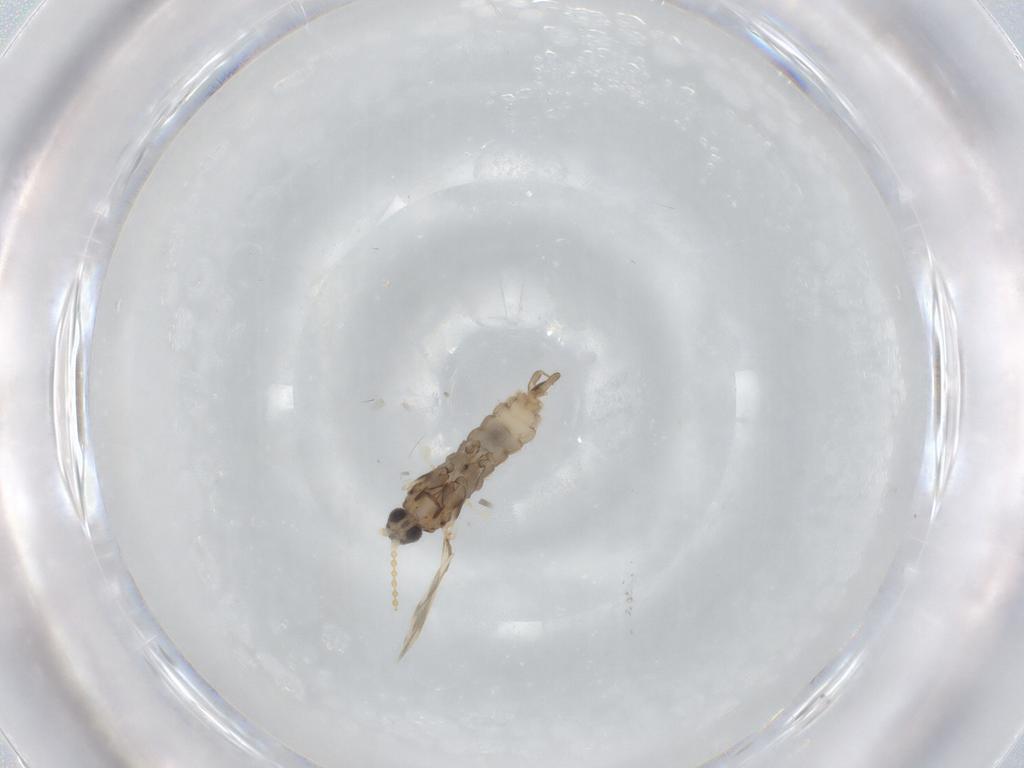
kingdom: Animalia
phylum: Arthropoda
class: Insecta
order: Diptera
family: Cecidomyiidae
